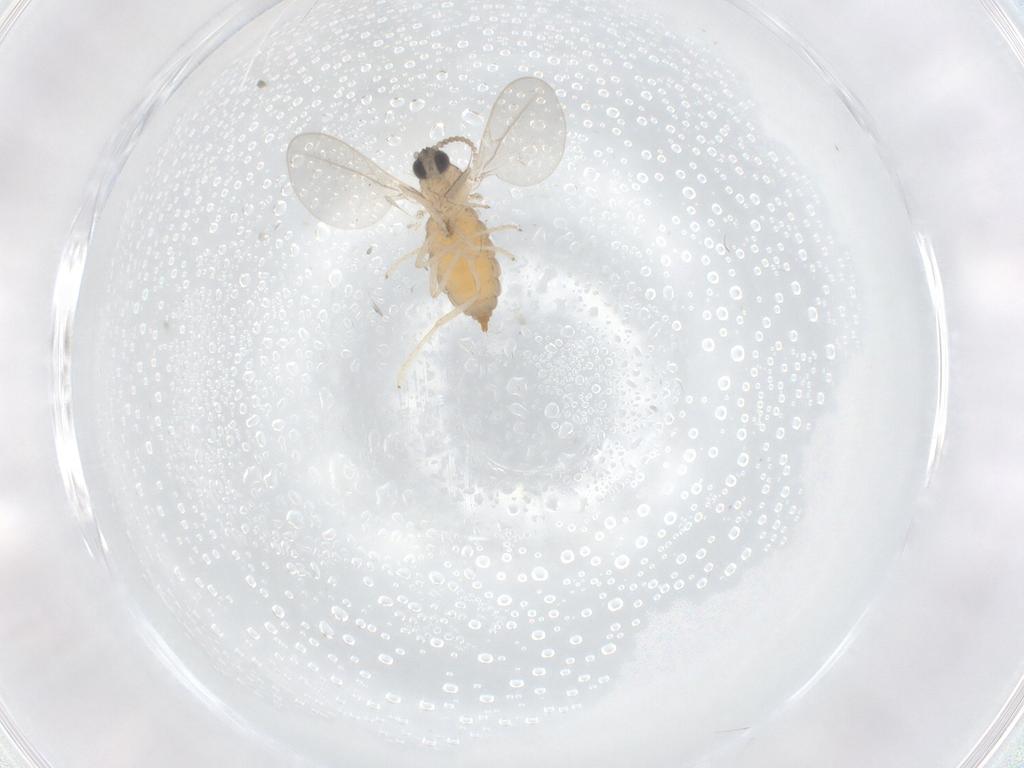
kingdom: Animalia
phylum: Arthropoda
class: Insecta
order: Diptera
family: Cecidomyiidae
